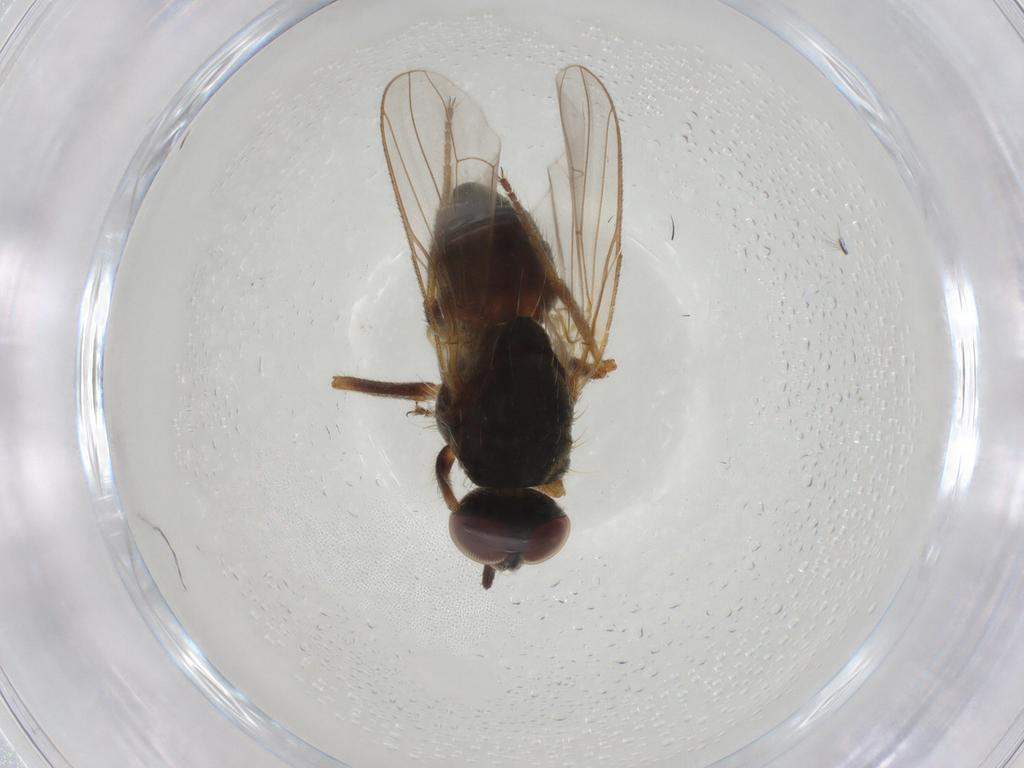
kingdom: Animalia
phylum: Arthropoda
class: Insecta
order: Diptera
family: Muscidae
